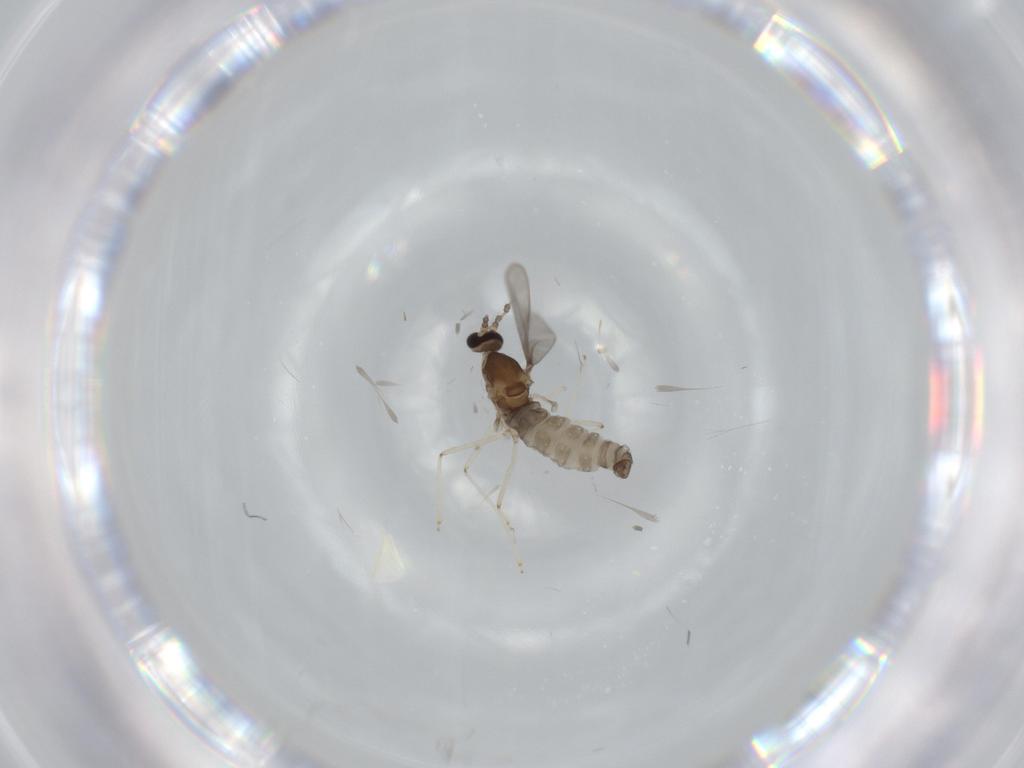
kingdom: Animalia
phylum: Arthropoda
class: Insecta
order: Diptera
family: Cecidomyiidae
